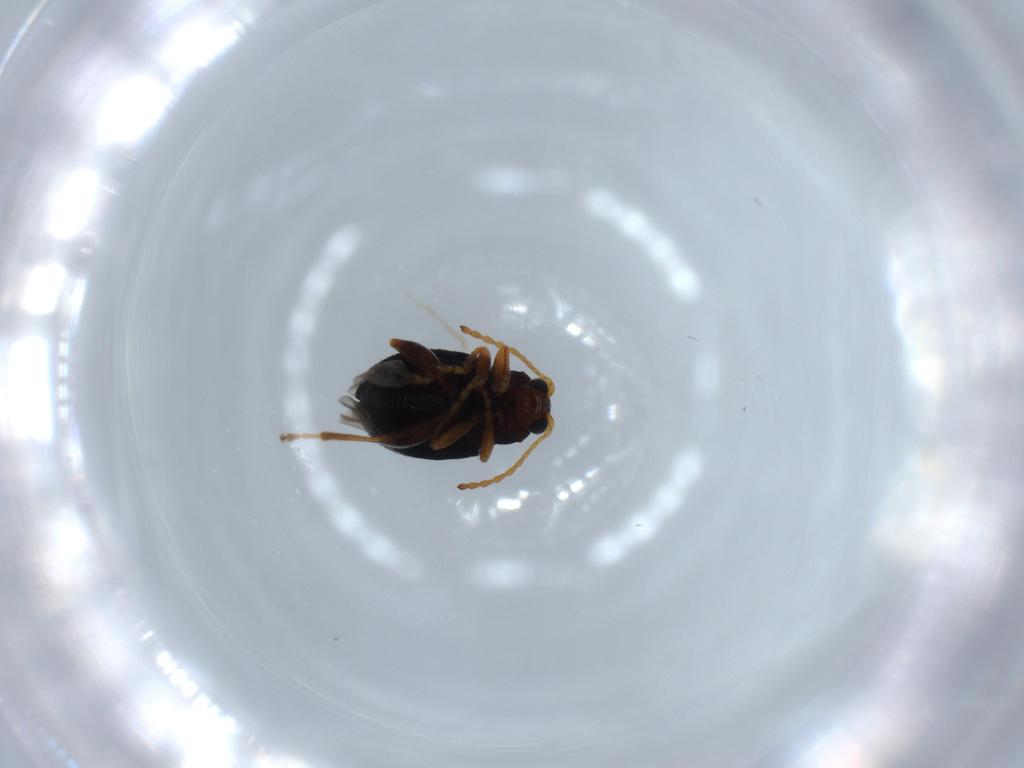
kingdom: Animalia
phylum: Arthropoda
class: Insecta
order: Coleoptera
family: Chrysomelidae
